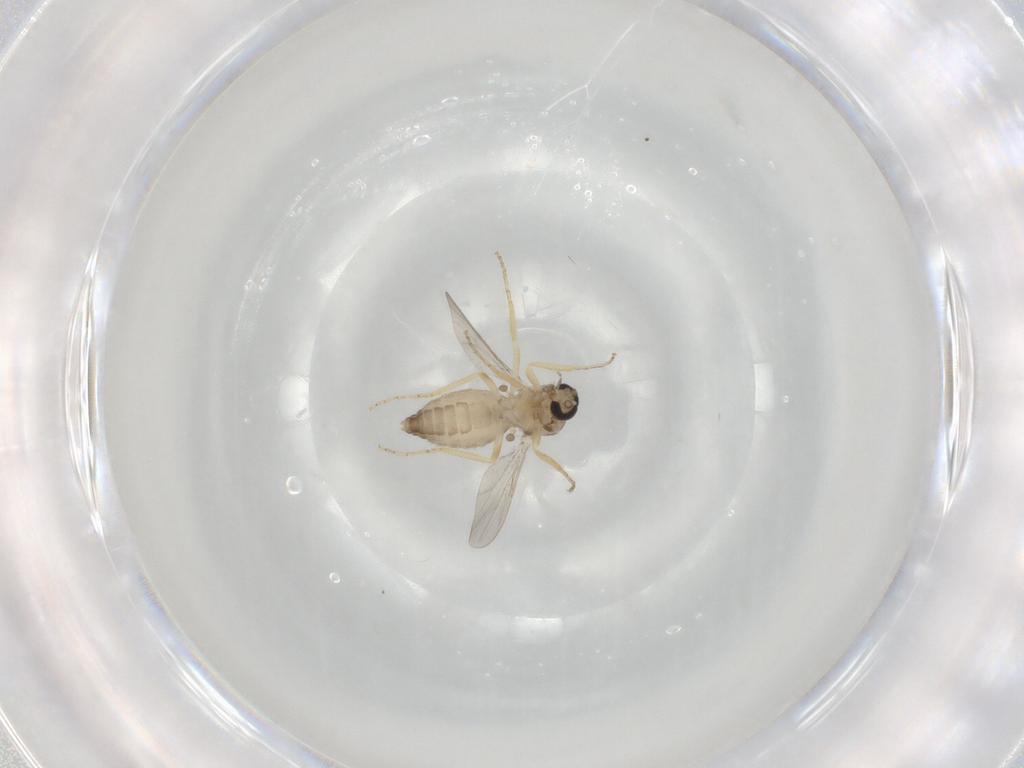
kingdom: Animalia
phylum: Arthropoda
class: Insecta
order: Diptera
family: Ceratopogonidae
